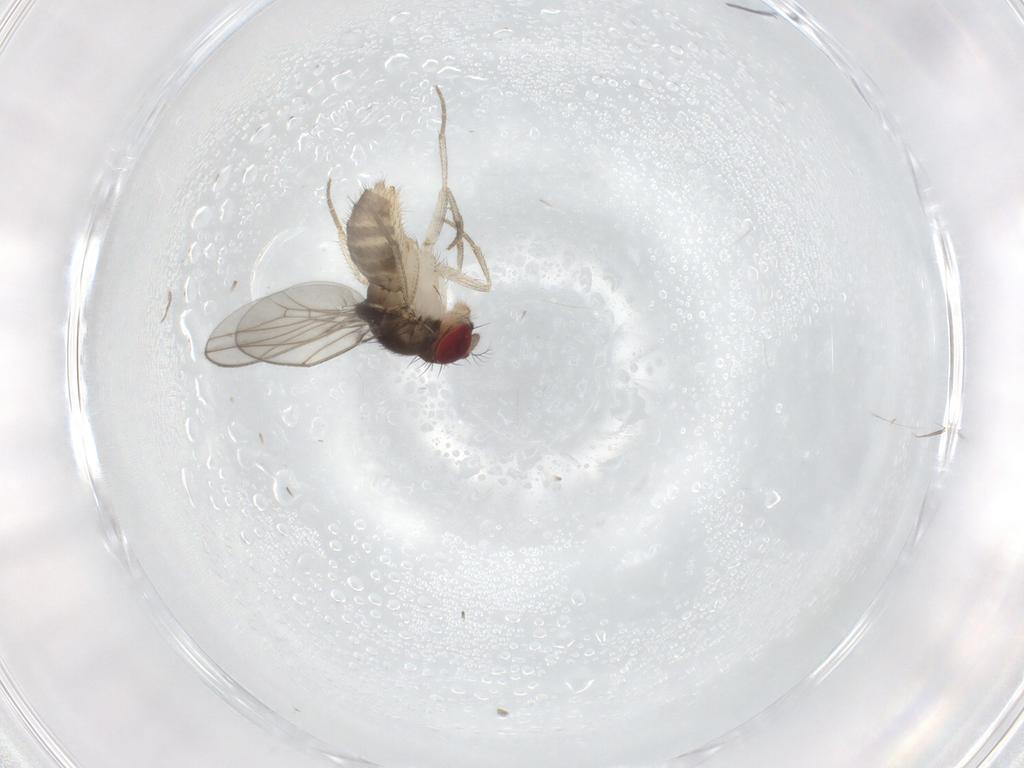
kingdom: Animalia
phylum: Arthropoda
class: Insecta
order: Diptera
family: Drosophilidae
